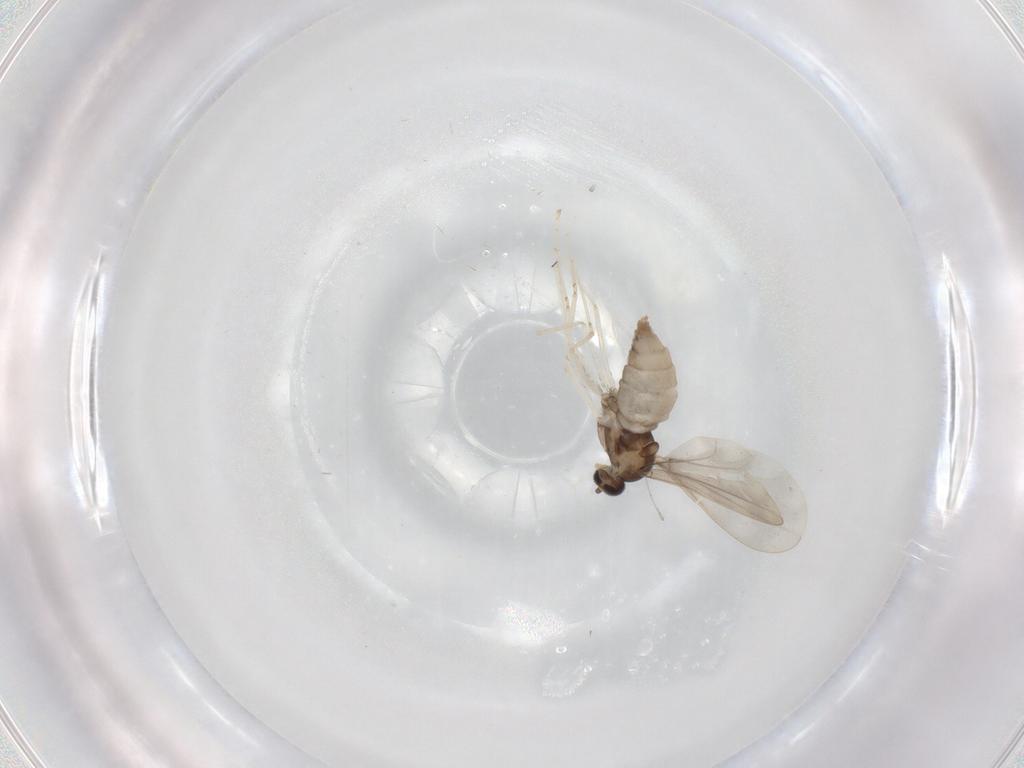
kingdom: Animalia
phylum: Arthropoda
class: Insecta
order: Diptera
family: Cecidomyiidae
